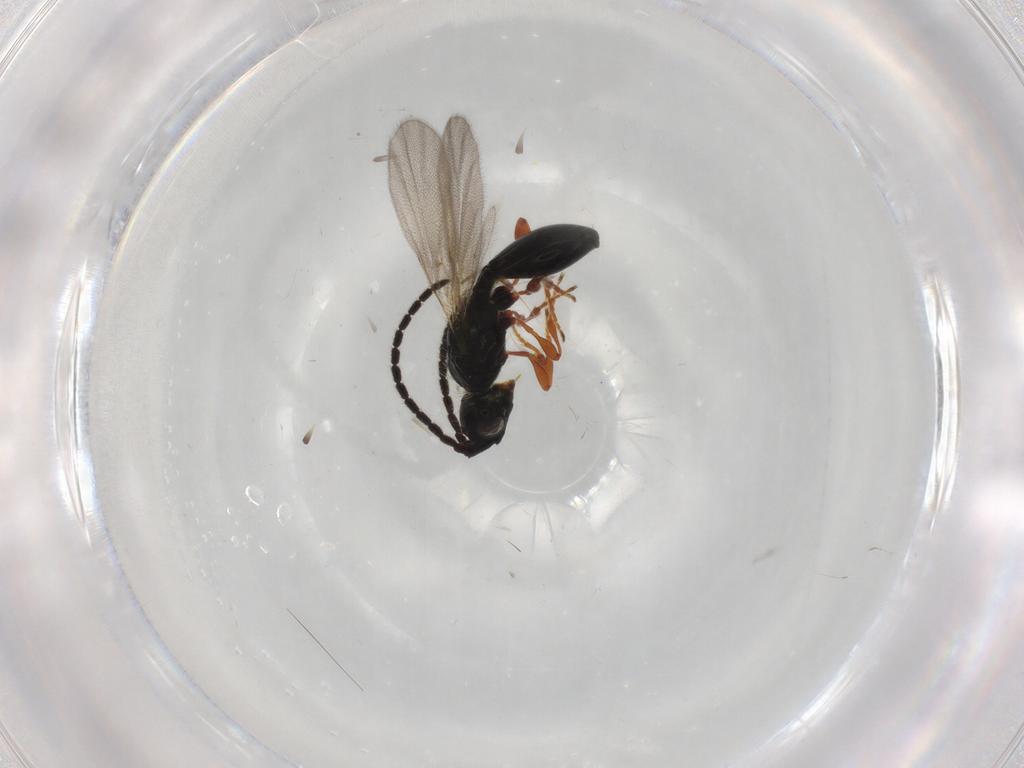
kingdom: Animalia
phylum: Arthropoda
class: Insecta
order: Hymenoptera
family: Diapriidae
